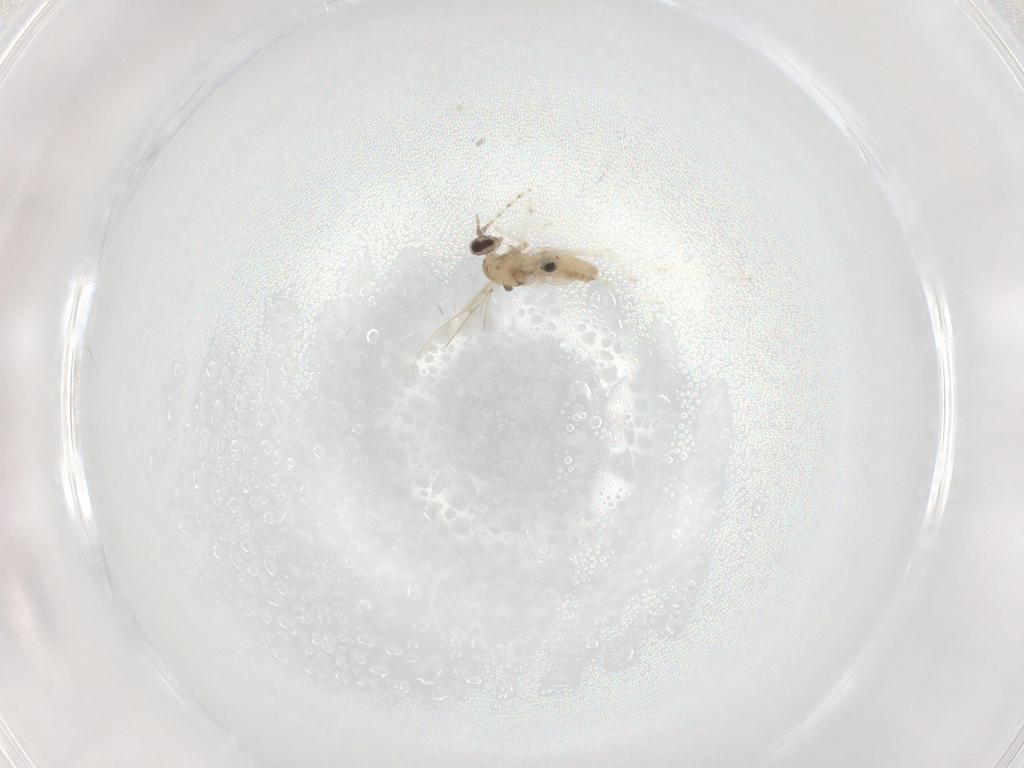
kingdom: Animalia
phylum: Arthropoda
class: Insecta
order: Diptera
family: Cecidomyiidae
